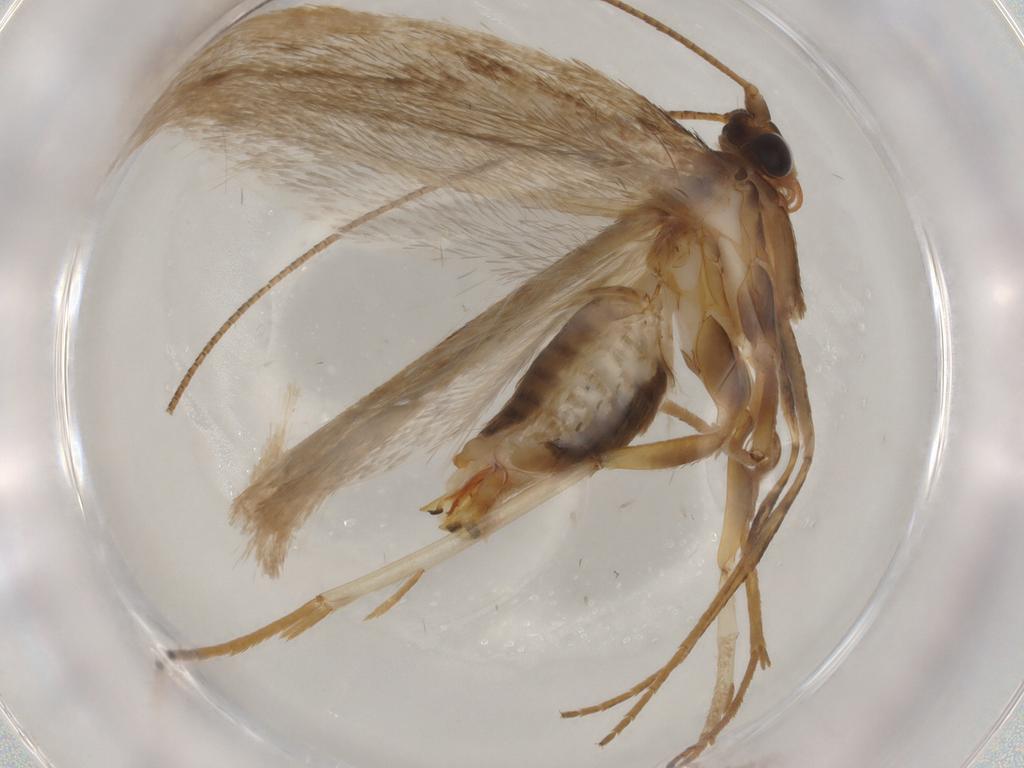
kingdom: Animalia
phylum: Arthropoda
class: Insecta
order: Lepidoptera
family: Adelidae
